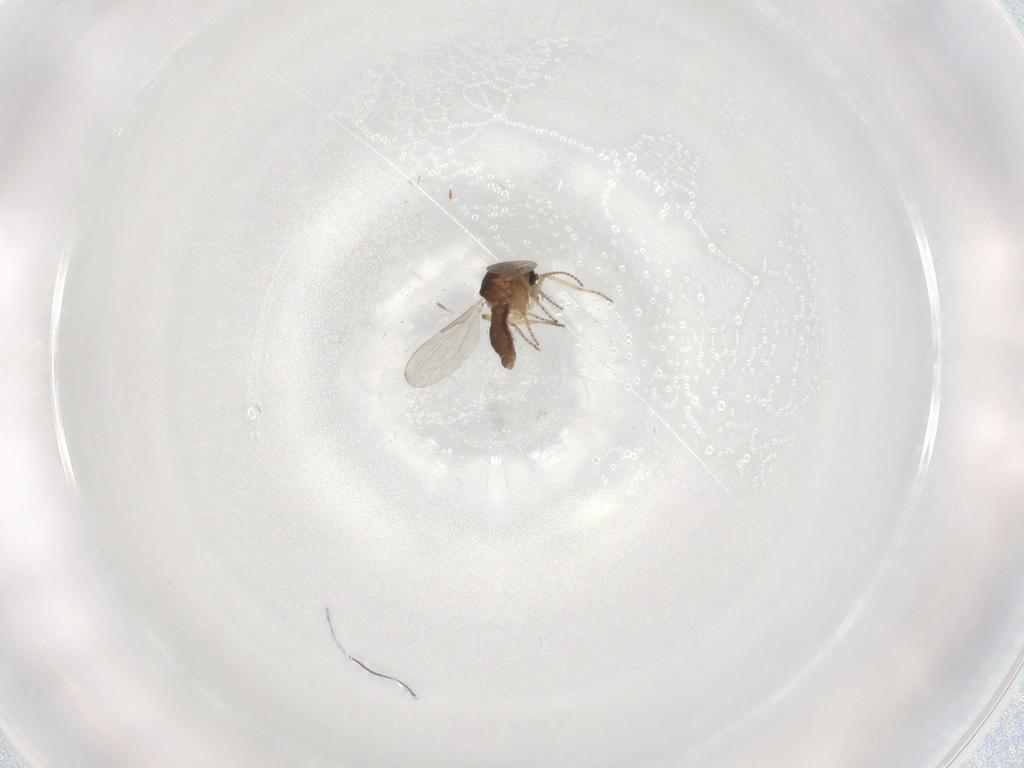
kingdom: Animalia
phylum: Arthropoda
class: Insecta
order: Diptera
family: Ceratopogonidae
